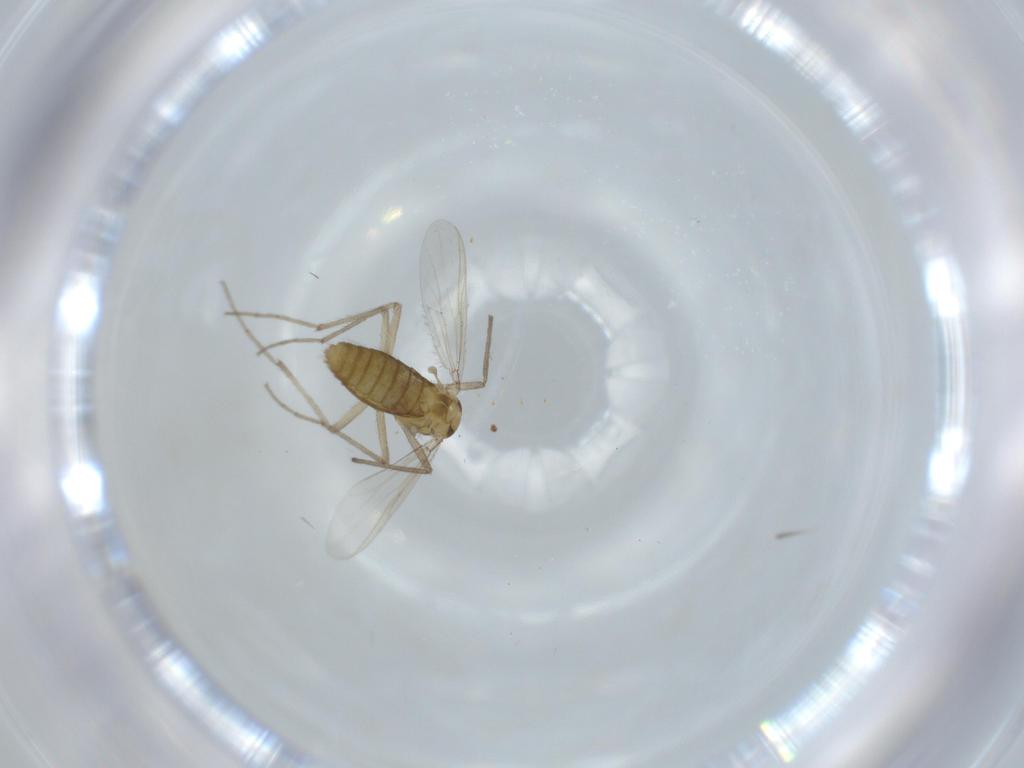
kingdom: Animalia
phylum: Arthropoda
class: Insecta
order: Diptera
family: Chironomidae
